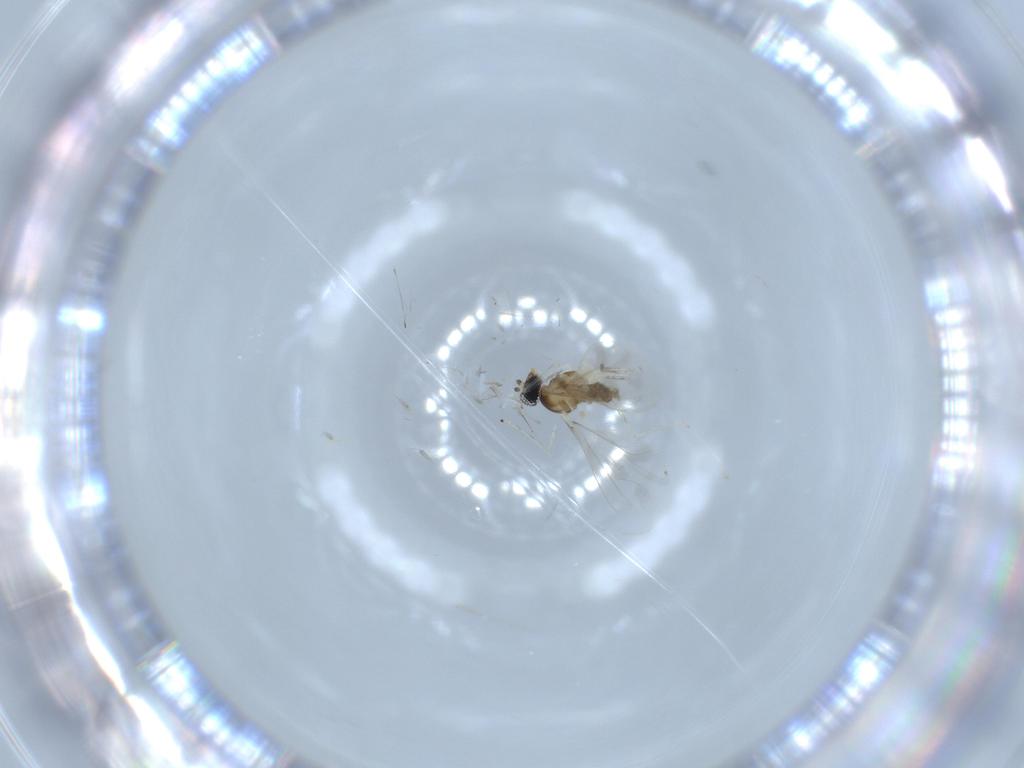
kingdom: Animalia
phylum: Arthropoda
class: Insecta
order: Diptera
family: Cecidomyiidae
